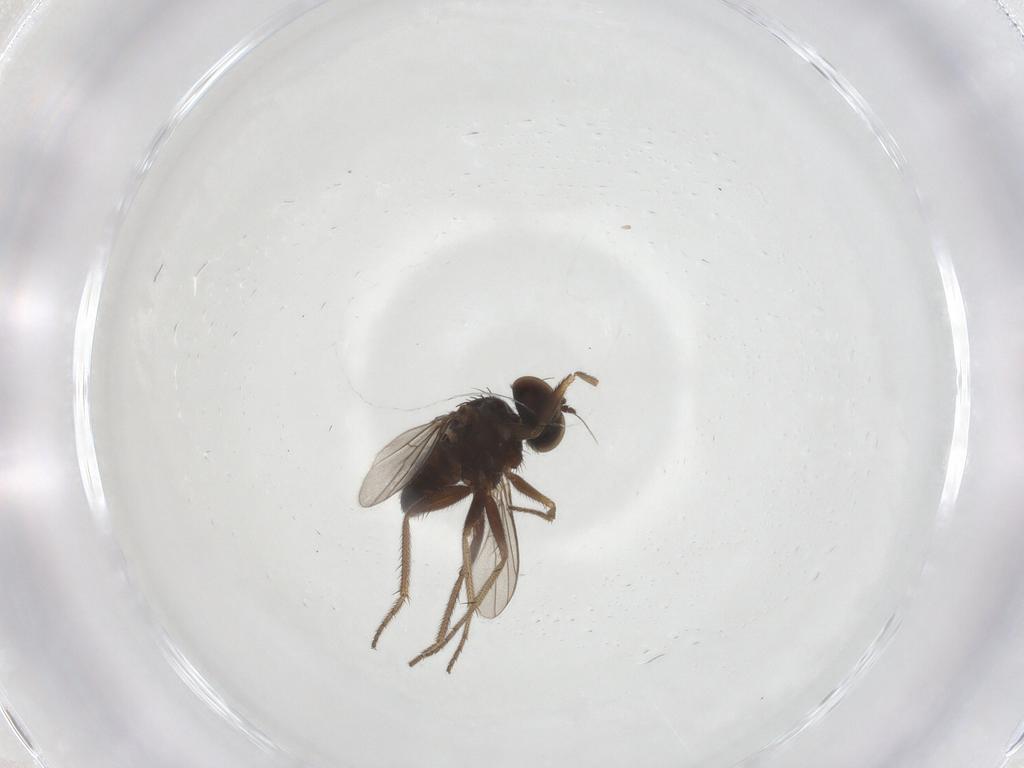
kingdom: Animalia
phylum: Arthropoda
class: Insecta
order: Diptera
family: Dolichopodidae
